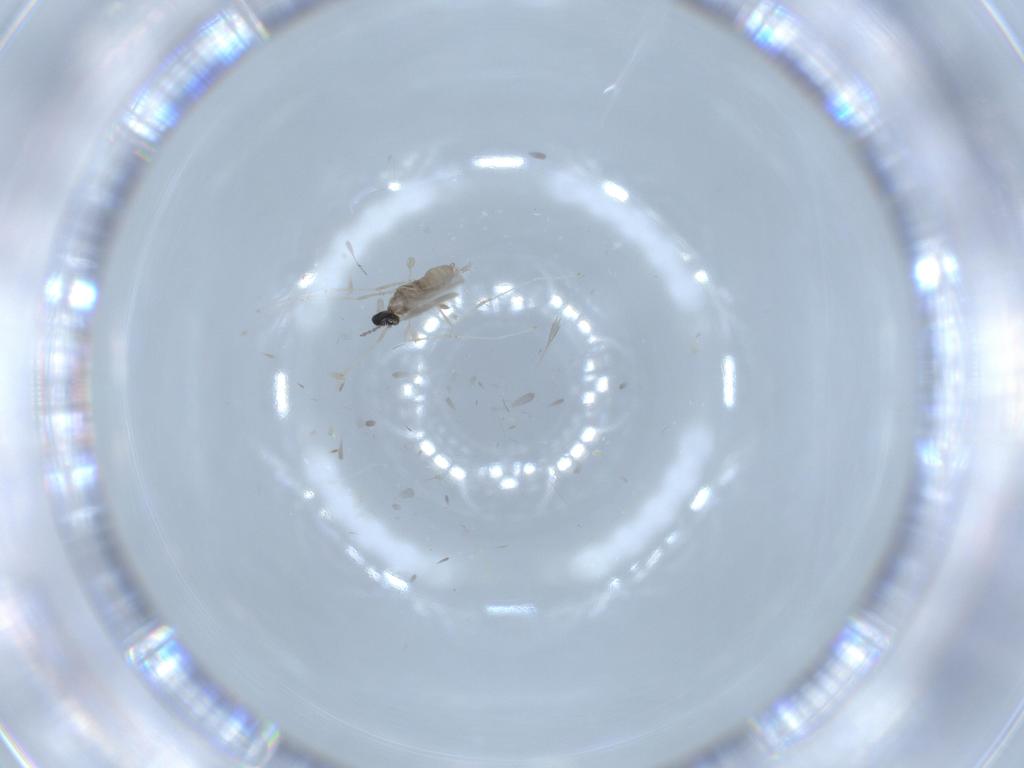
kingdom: Animalia
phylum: Arthropoda
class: Insecta
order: Diptera
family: Cecidomyiidae
